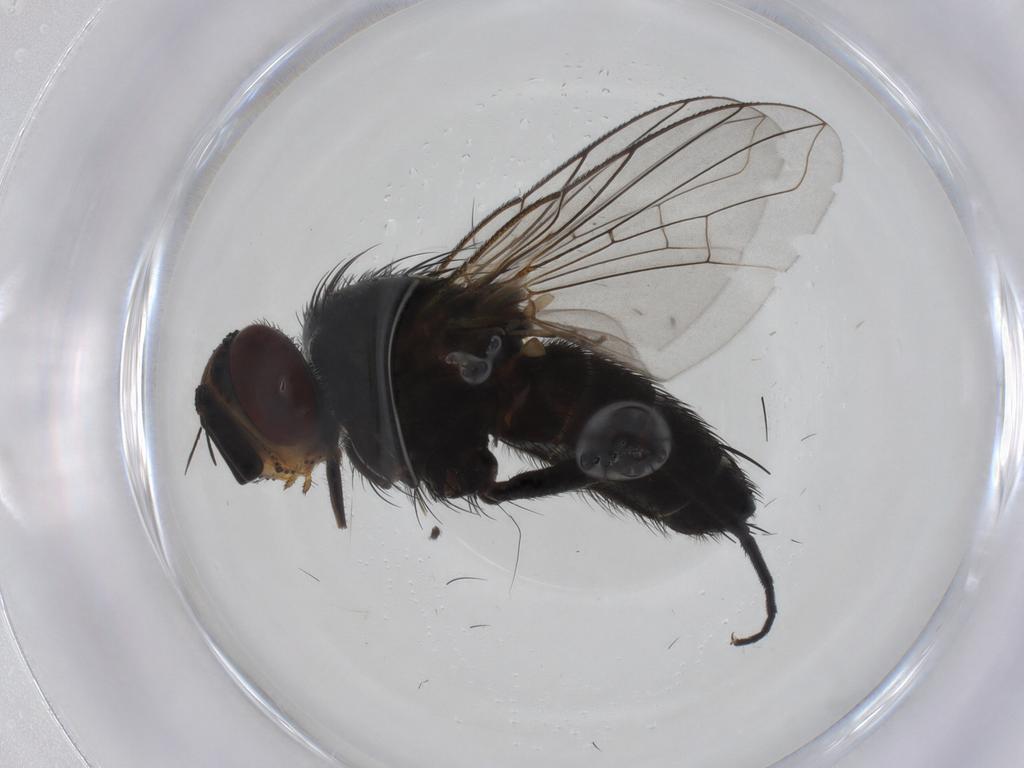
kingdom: Animalia
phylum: Arthropoda
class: Insecta
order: Diptera
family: Tachinidae
